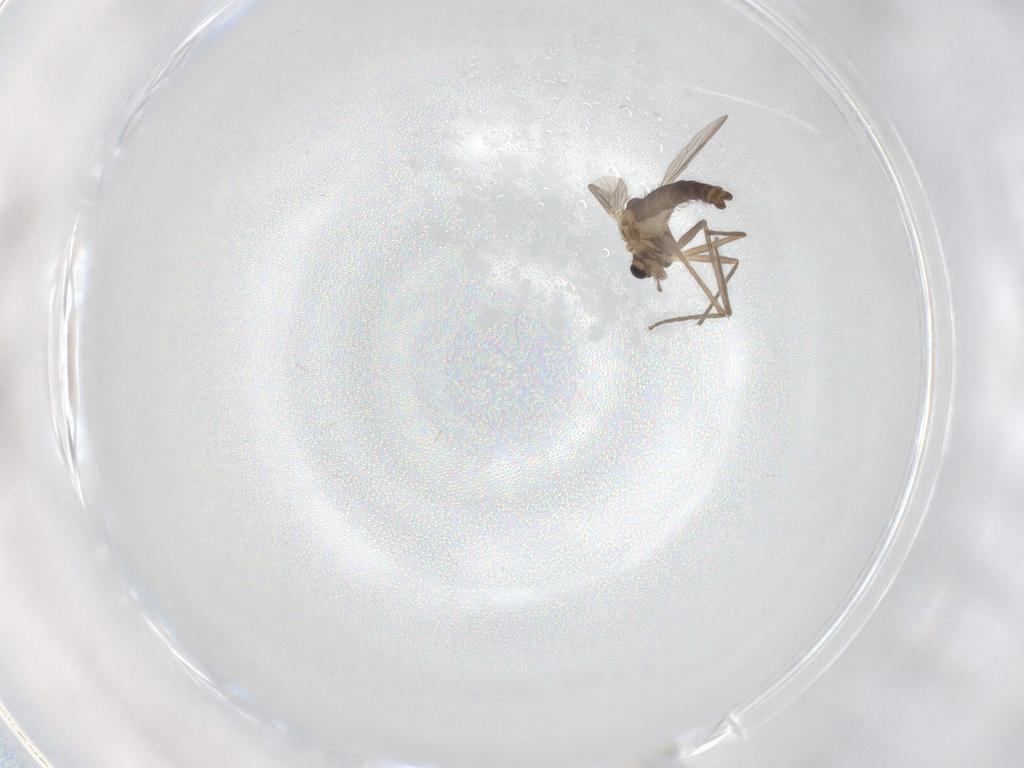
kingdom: Animalia
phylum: Arthropoda
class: Insecta
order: Diptera
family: Chironomidae
